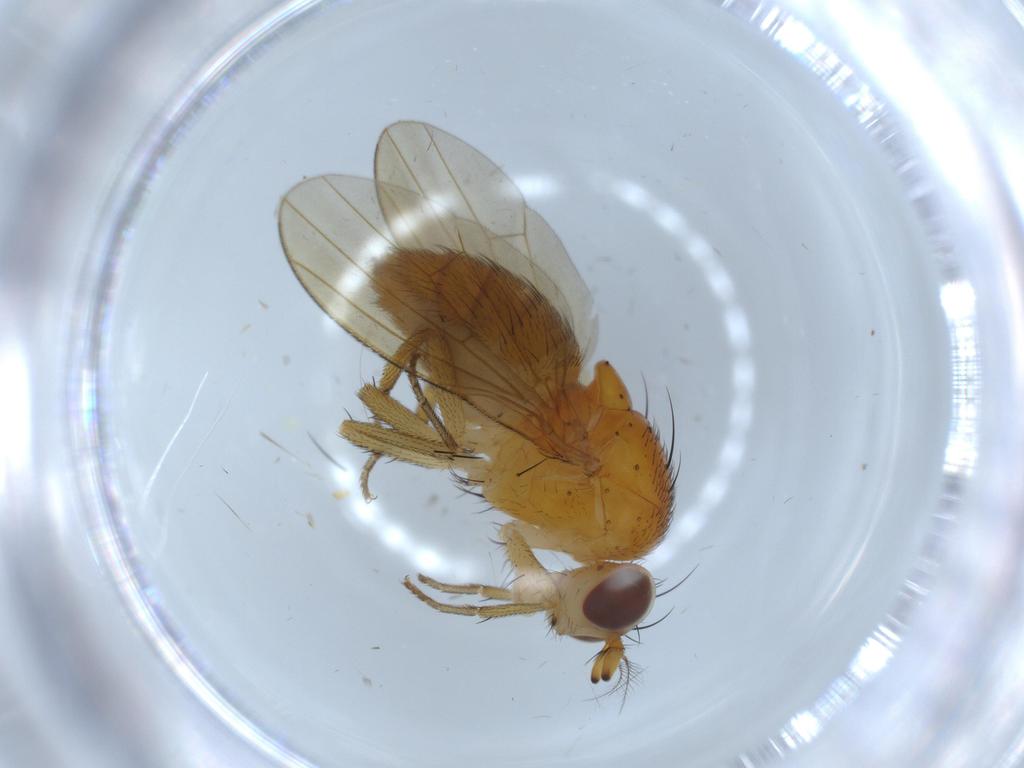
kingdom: Animalia
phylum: Arthropoda
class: Insecta
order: Diptera
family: Lauxaniidae
